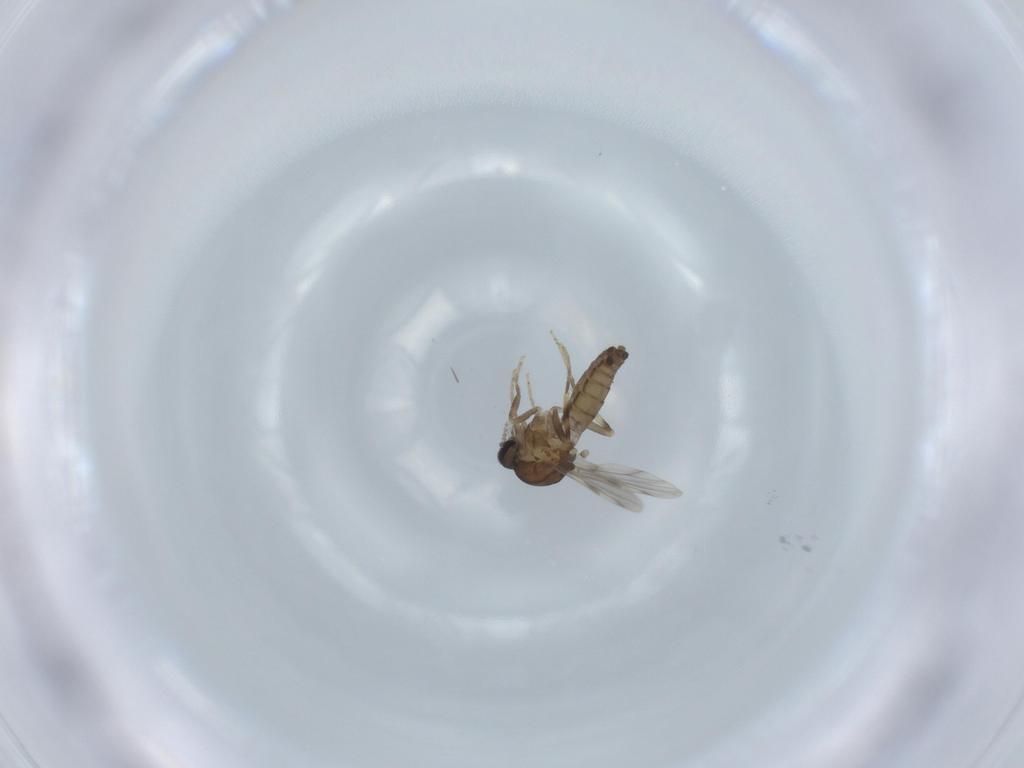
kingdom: Animalia
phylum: Arthropoda
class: Insecta
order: Diptera
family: Ceratopogonidae
